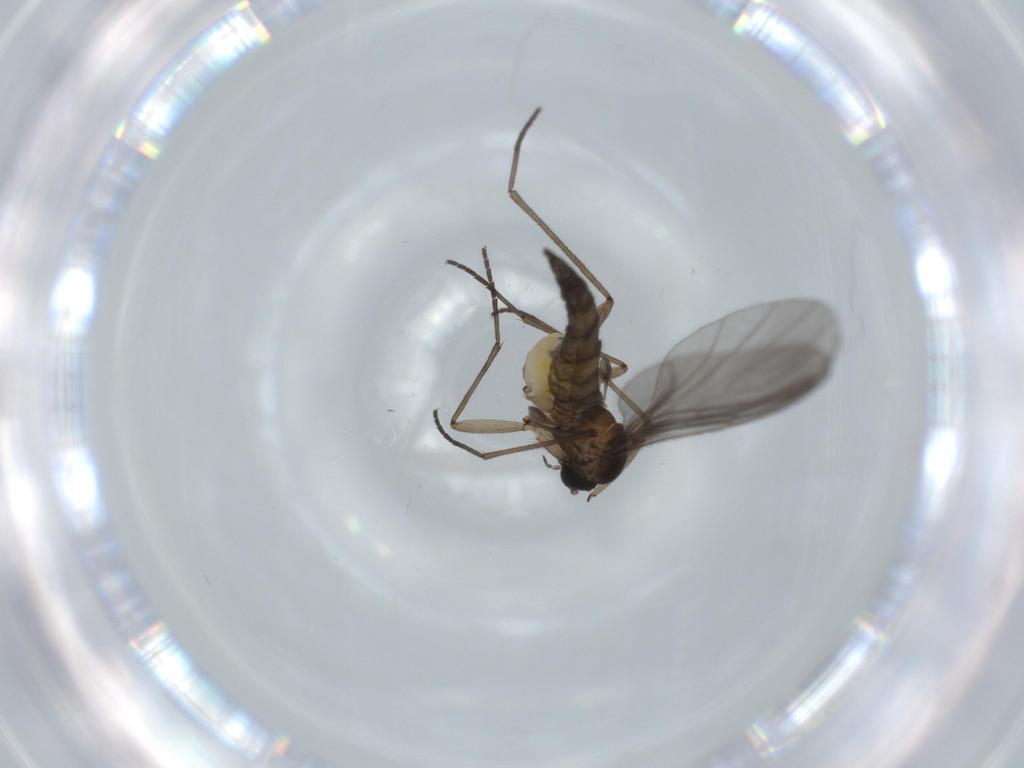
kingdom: Animalia
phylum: Arthropoda
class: Insecta
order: Diptera
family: Sciaridae
